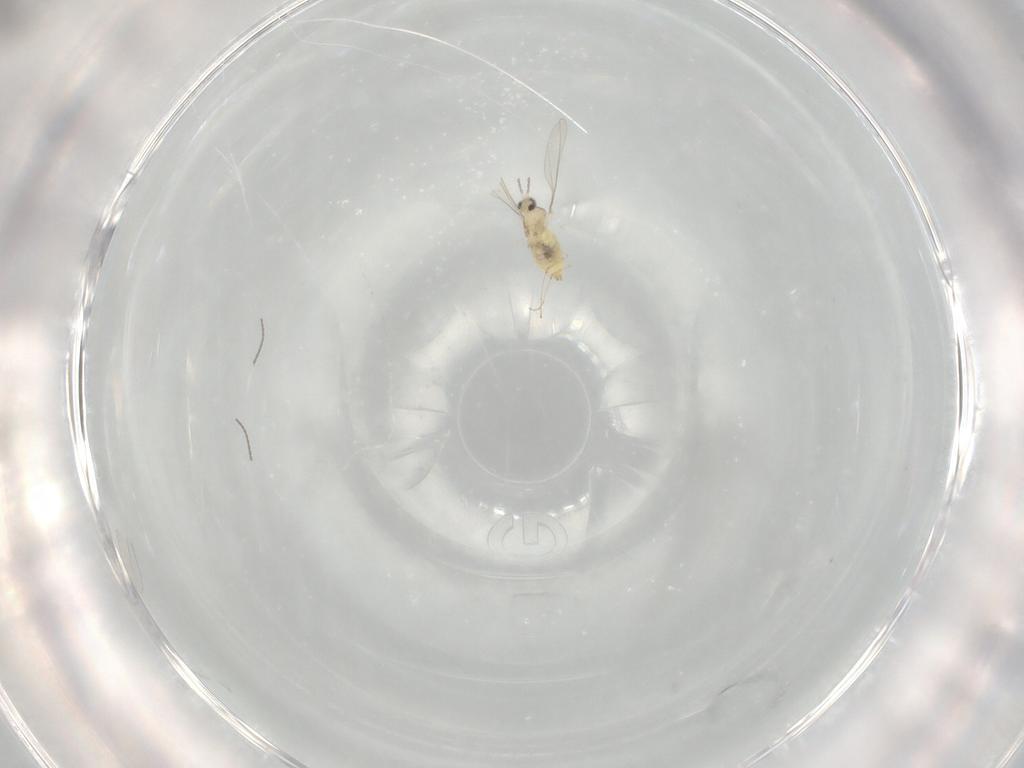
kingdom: Animalia
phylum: Arthropoda
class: Insecta
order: Diptera
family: Cecidomyiidae
